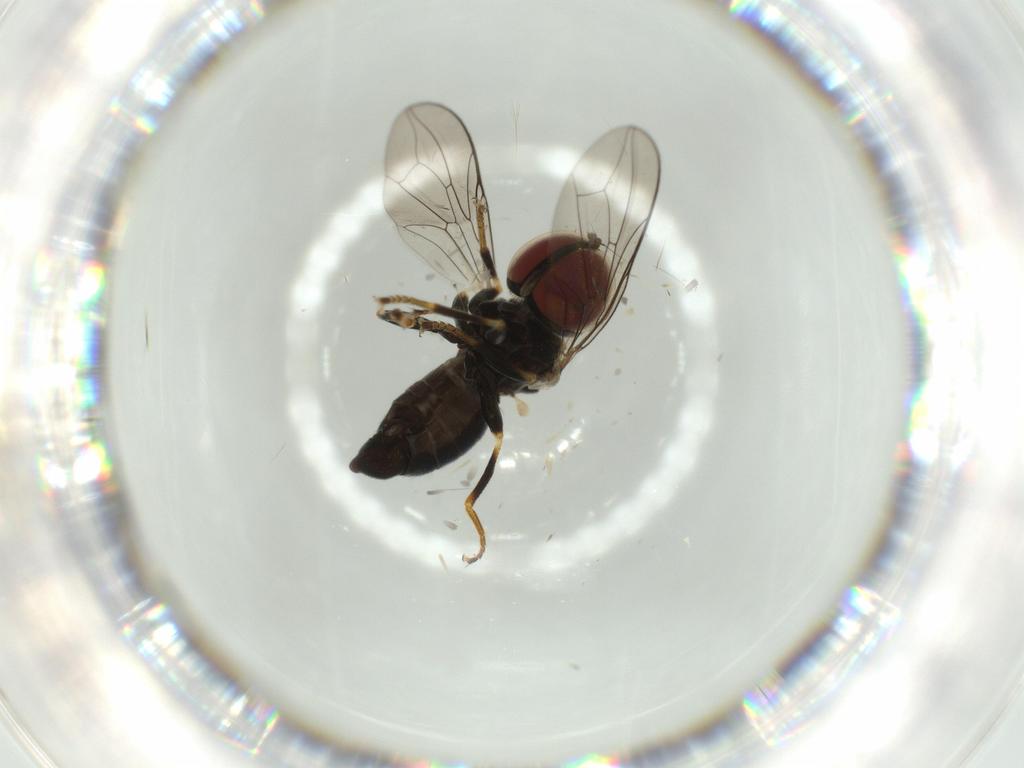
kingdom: Animalia
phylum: Arthropoda
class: Insecta
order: Diptera
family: Pipunculidae
